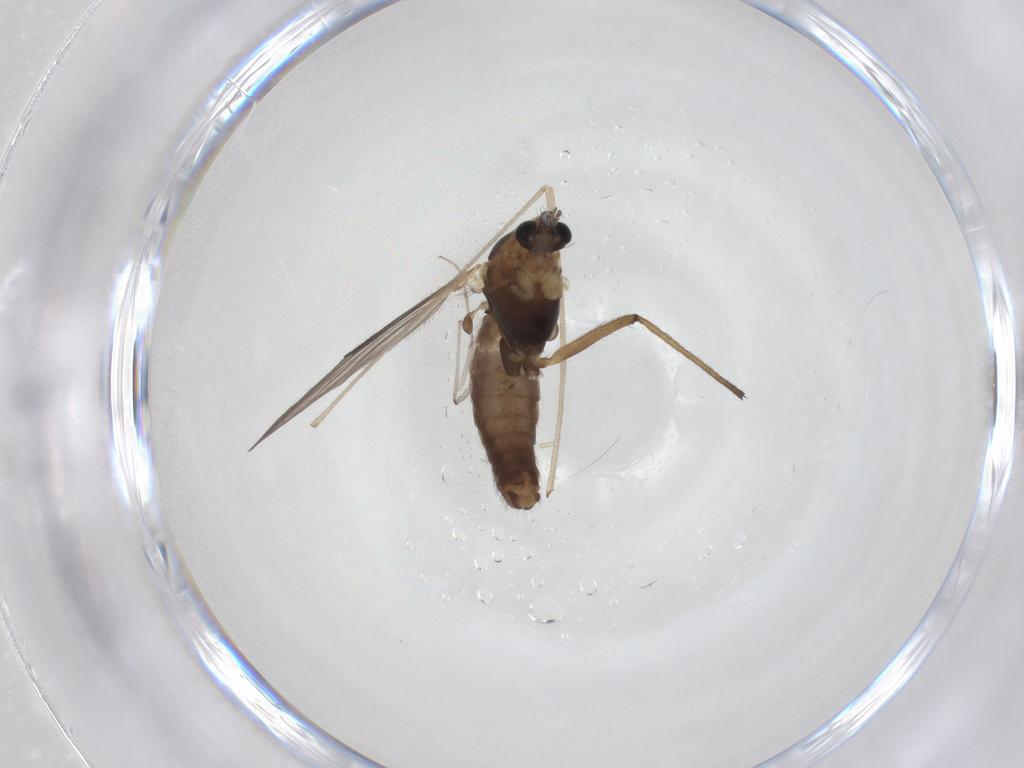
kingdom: Animalia
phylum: Arthropoda
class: Insecta
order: Diptera
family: Chironomidae
